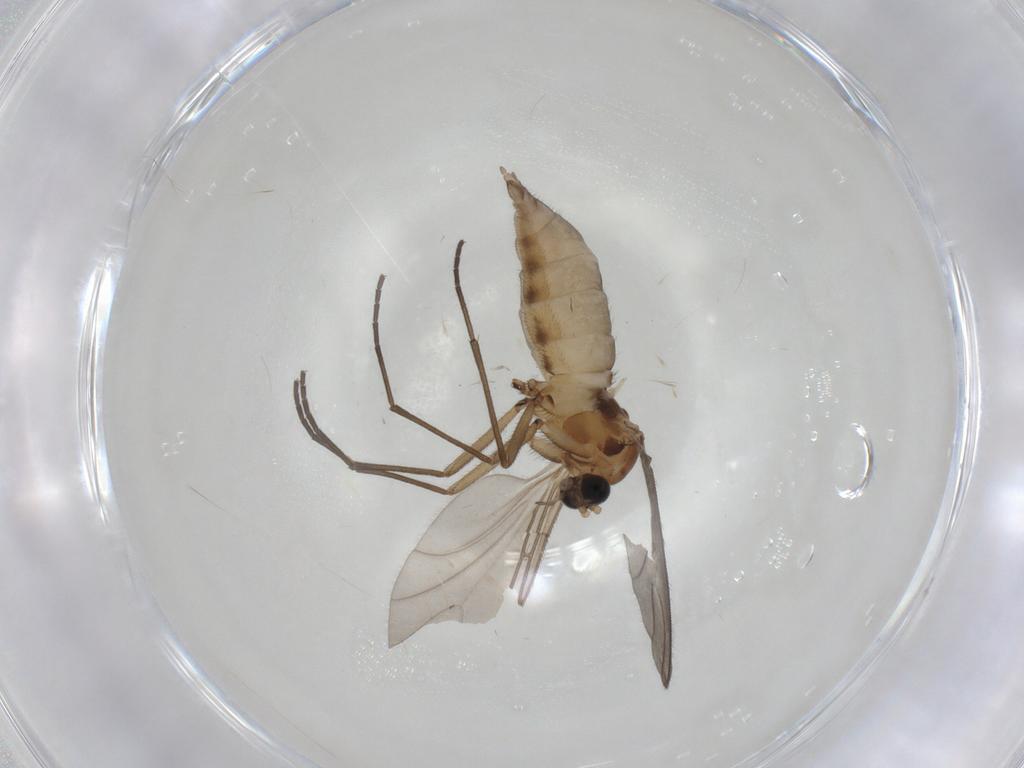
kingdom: Animalia
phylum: Arthropoda
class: Insecta
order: Diptera
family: Sciaridae
